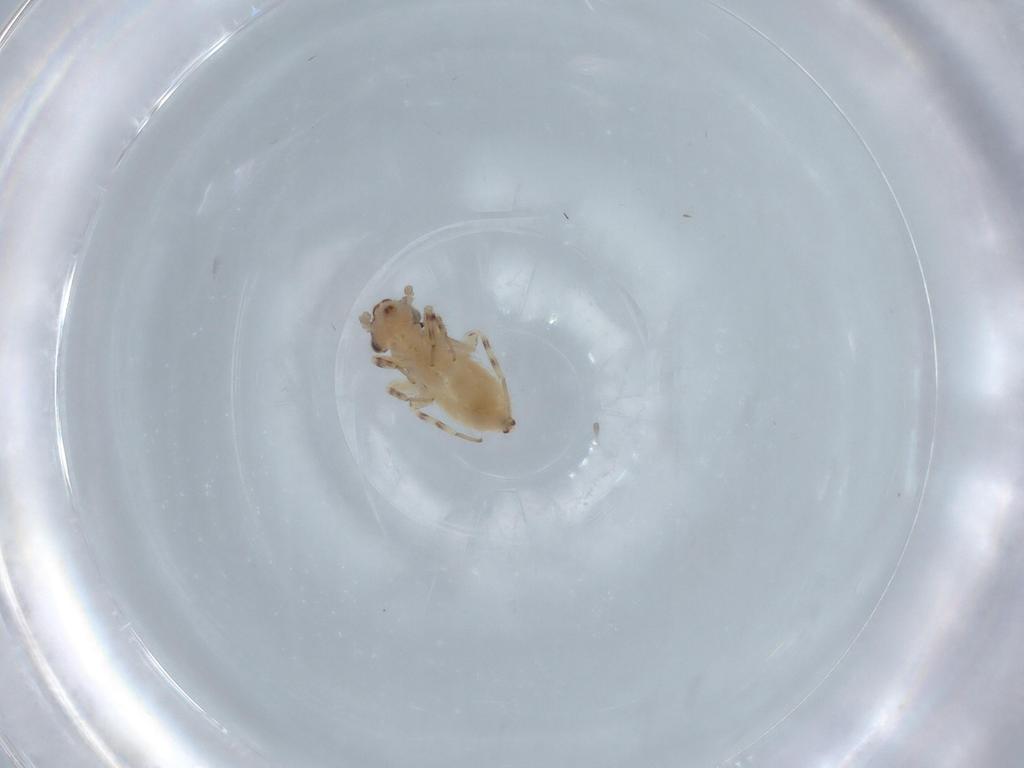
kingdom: Animalia
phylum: Arthropoda
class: Insecta
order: Psocodea
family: Lepidopsocidae
